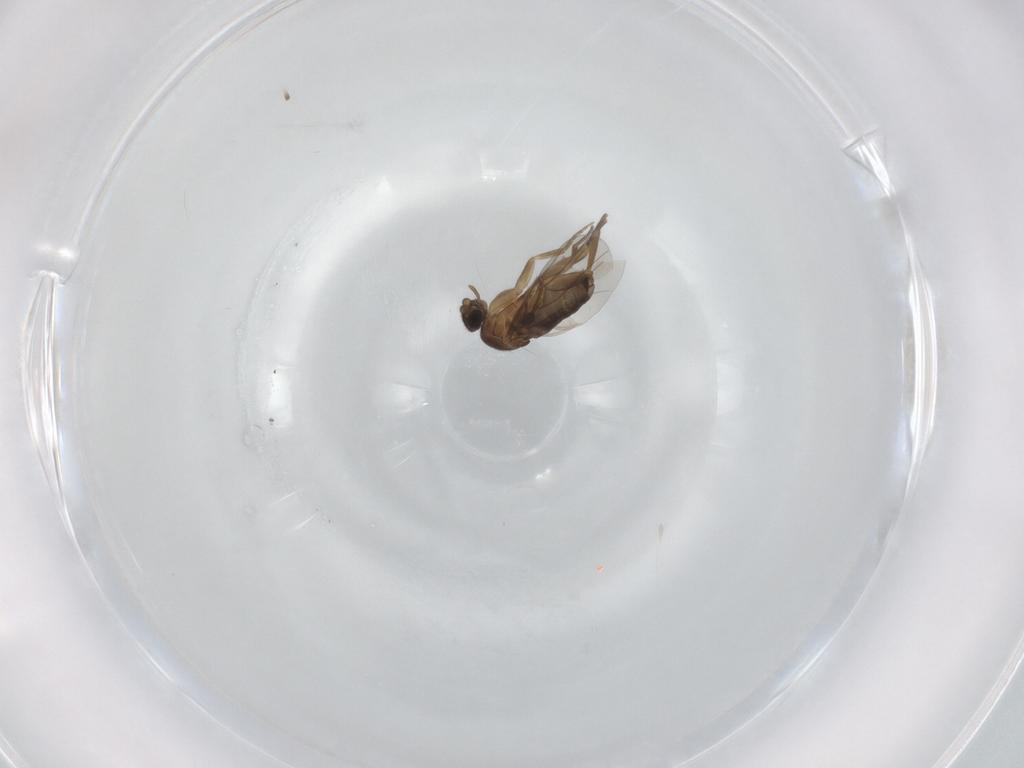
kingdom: Animalia
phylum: Arthropoda
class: Insecta
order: Diptera
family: Phoridae
